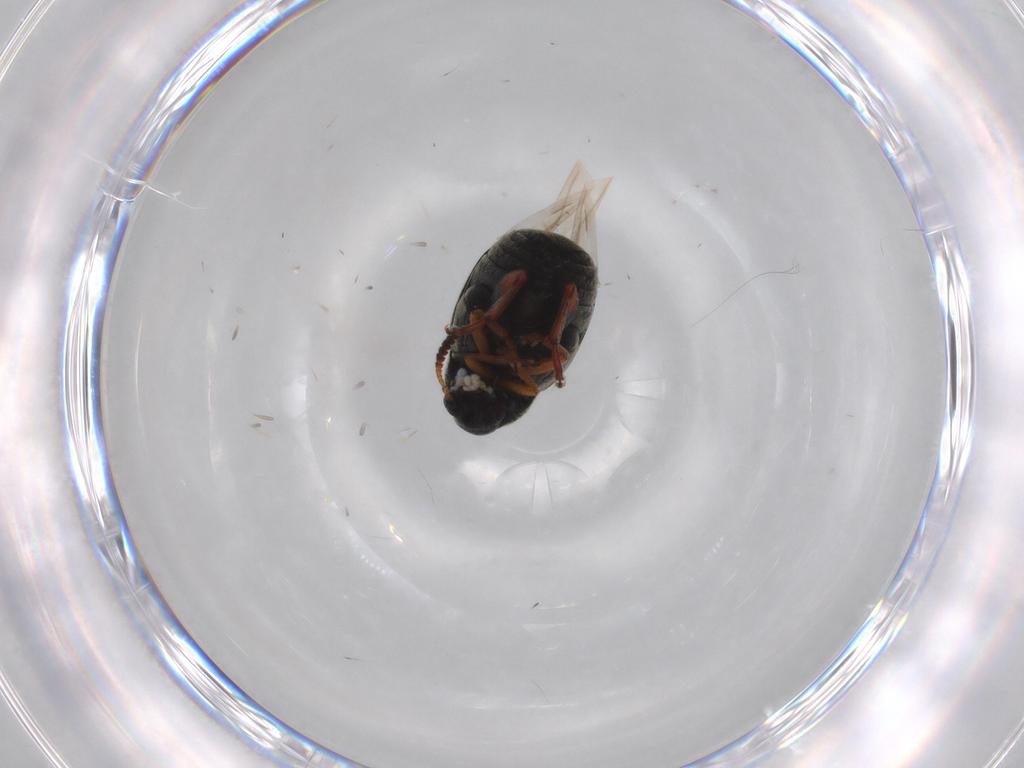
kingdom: Animalia
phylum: Arthropoda
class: Insecta
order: Coleoptera
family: Chrysomelidae
